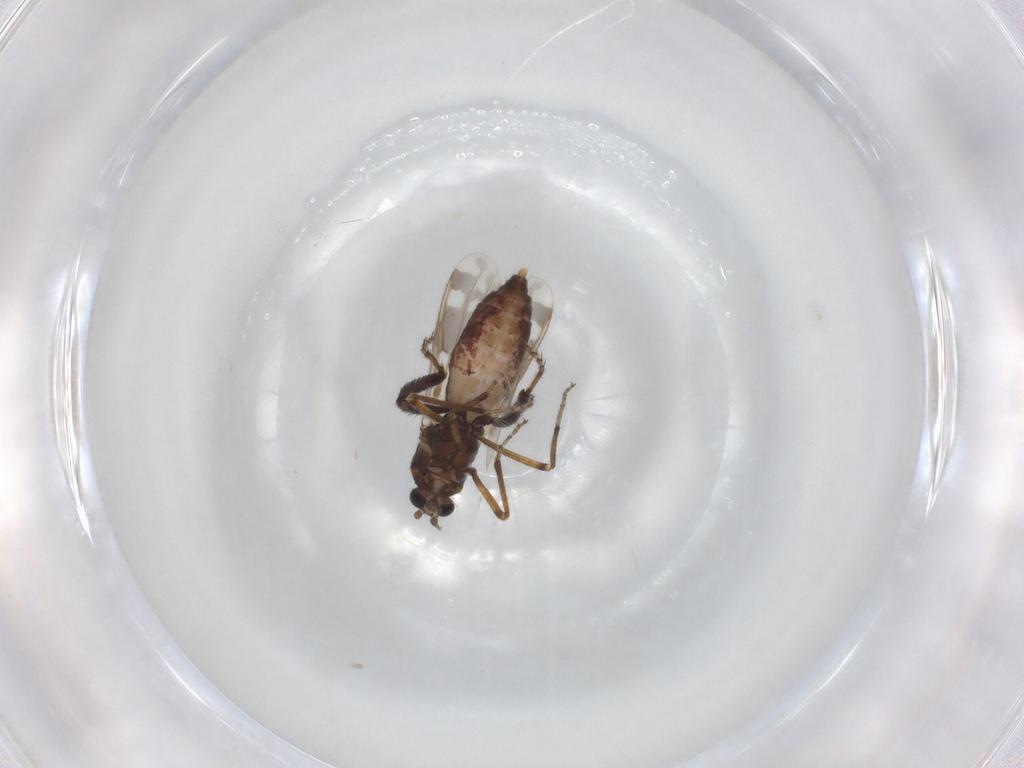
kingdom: Animalia
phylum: Arthropoda
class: Insecta
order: Diptera
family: Ceratopogonidae
